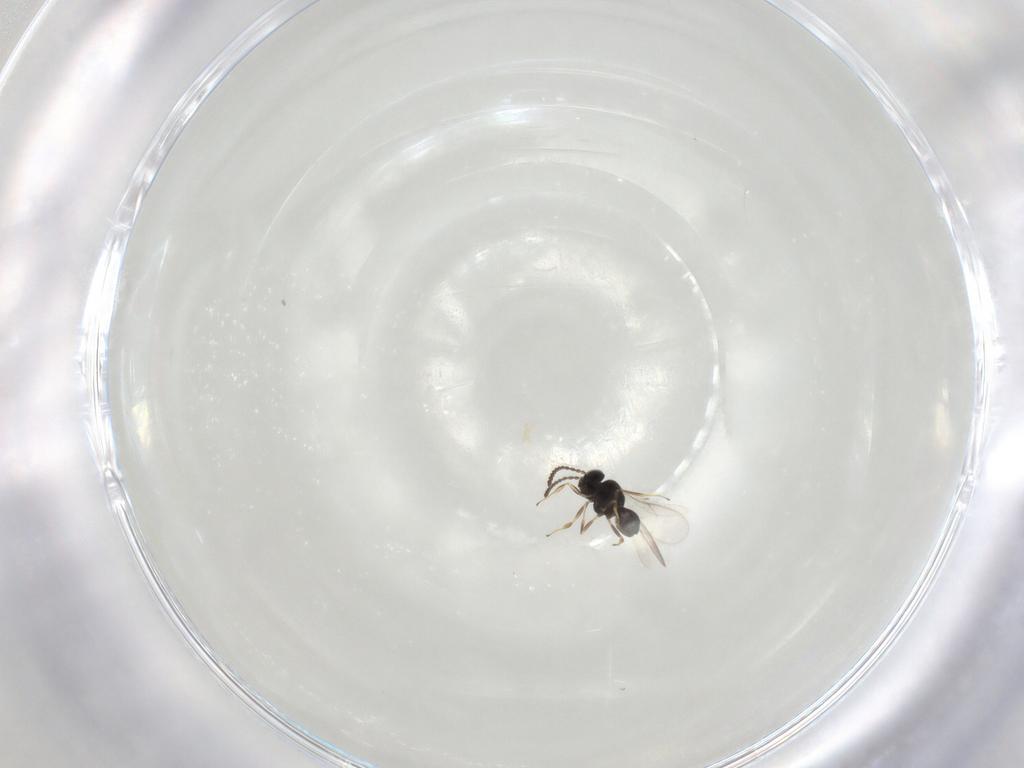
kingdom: Animalia
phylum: Arthropoda
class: Insecta
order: Hymenoptera
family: Scelionidae
